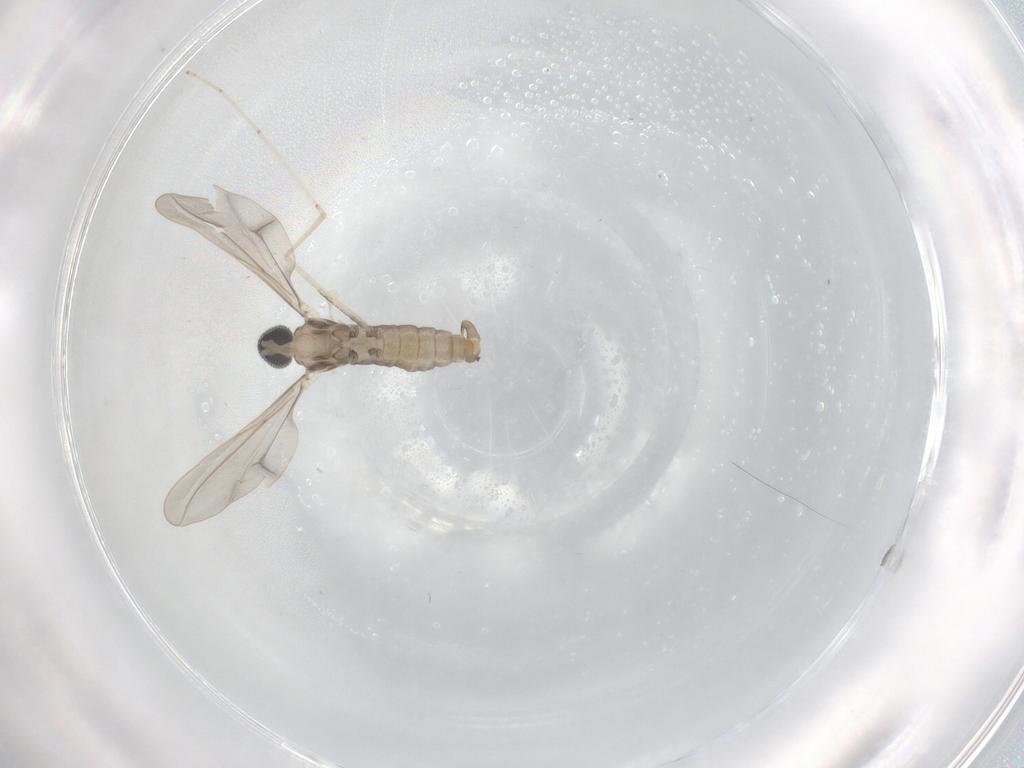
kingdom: Animalia
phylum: Arthropoda
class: Insecta
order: Diptera
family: Cecidomyiidae
